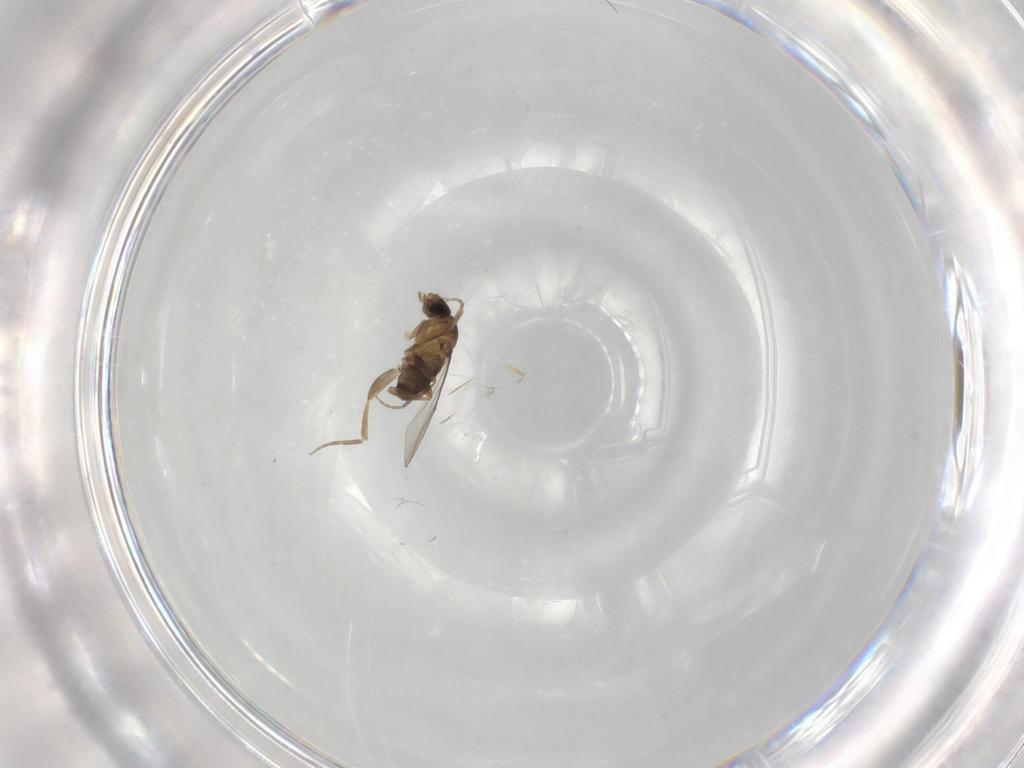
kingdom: Animalia
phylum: Arthropoda
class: Insecta
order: Diptera
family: Phoridae
